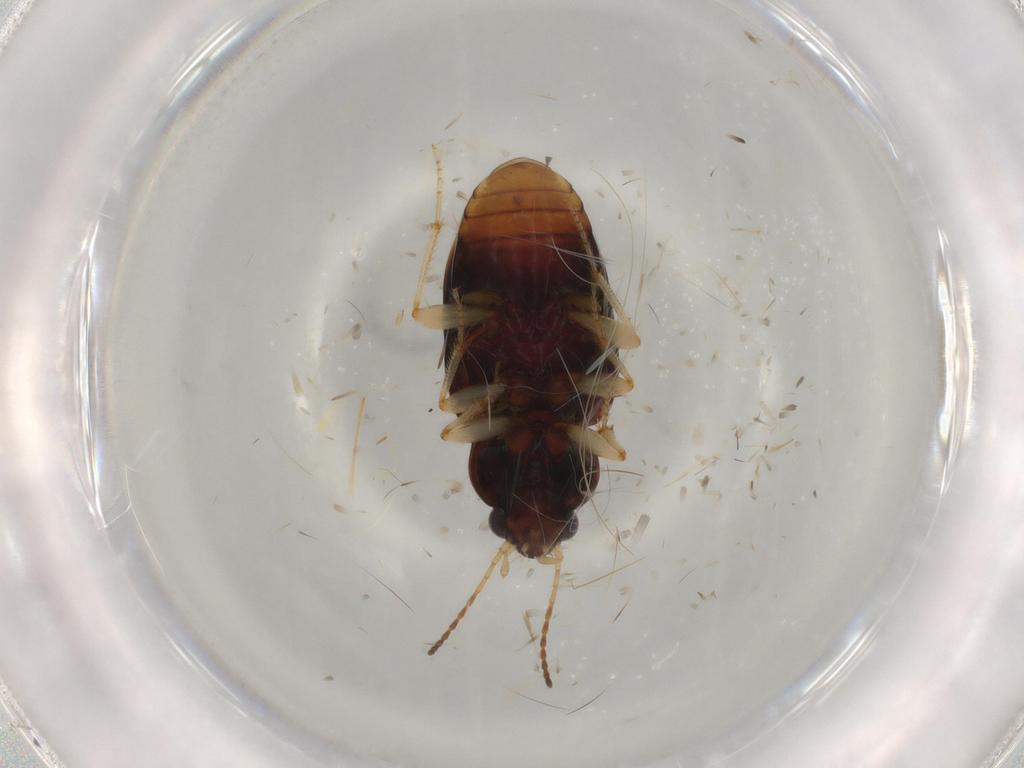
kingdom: Animalia
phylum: Arthropoda
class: Insecta
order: Coleoptera
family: Carabidae
